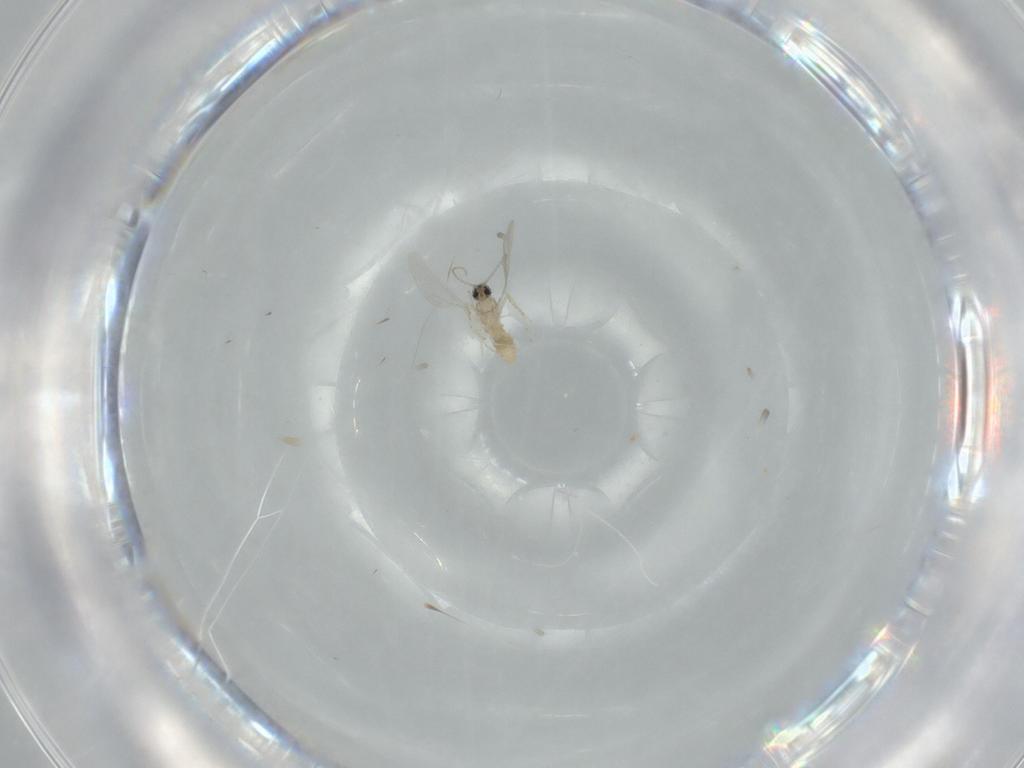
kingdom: Animalia
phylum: Arthropoda
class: Insecta
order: Diptera
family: Cecidomyiidae
